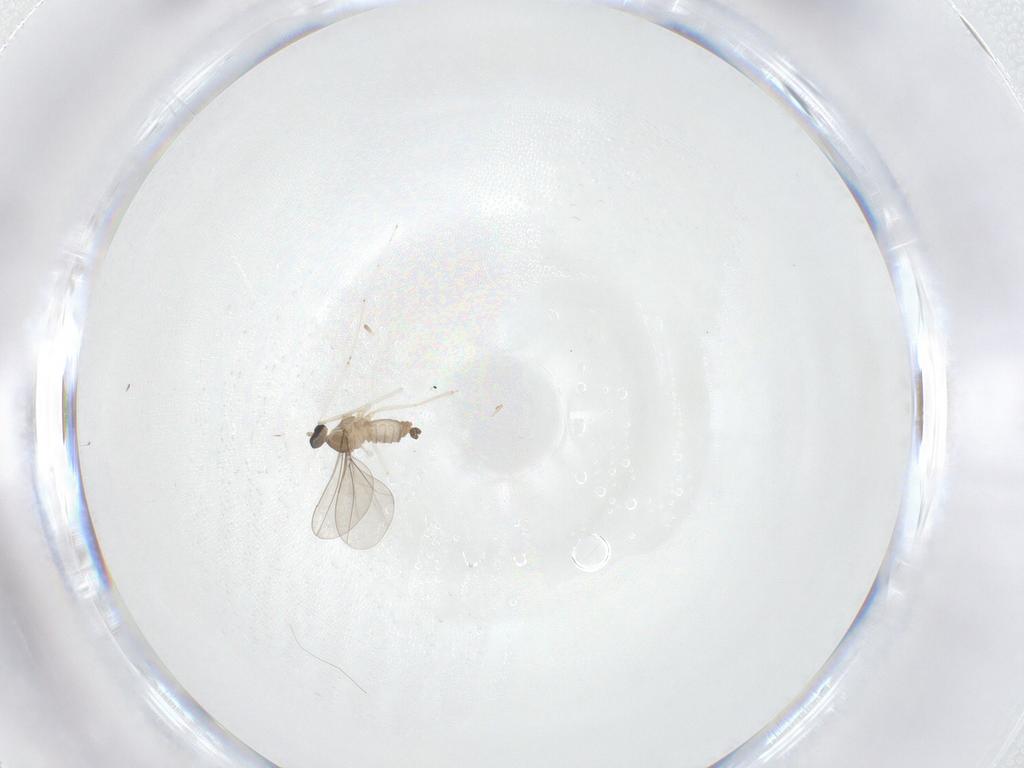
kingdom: Animalia
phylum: Arthropoda
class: Insecta
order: Diptera
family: Cecidomyiidae
